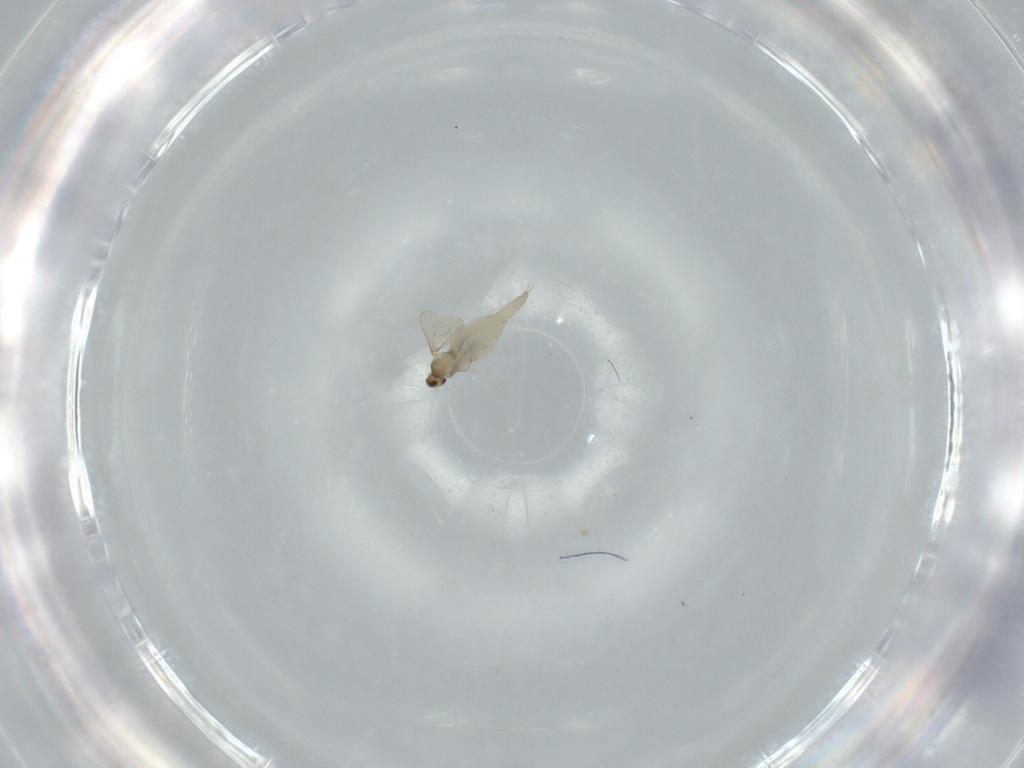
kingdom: Animalia
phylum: Arthropoda
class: Insecta
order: Diptera
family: Cecidomyiidae
